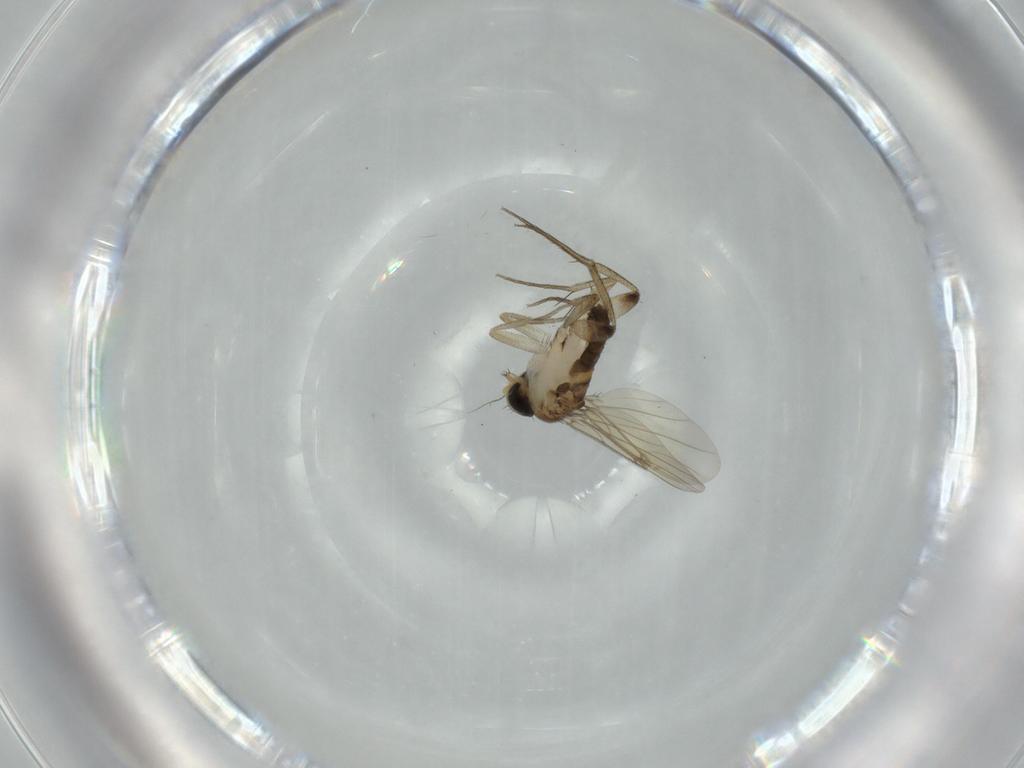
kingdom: Animalia
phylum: Arthropoda
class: Insecta
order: Diptera
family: Phoridae
